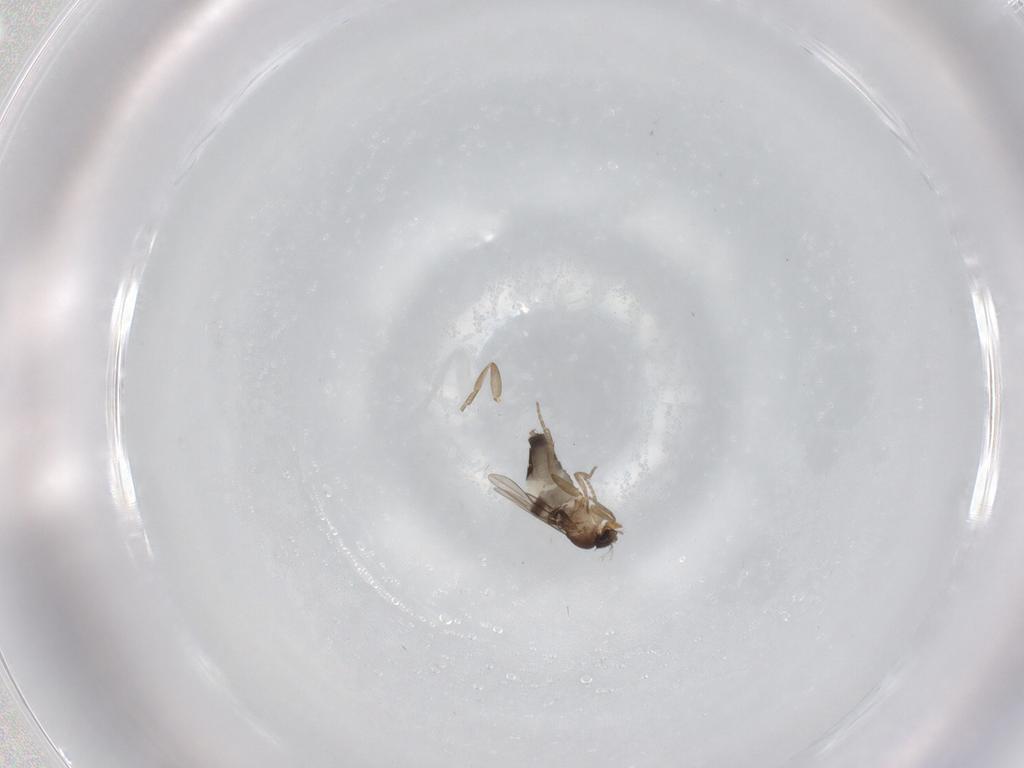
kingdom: Animalia
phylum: Arthropoda
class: Insecta
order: Diptera
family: Phoridae
